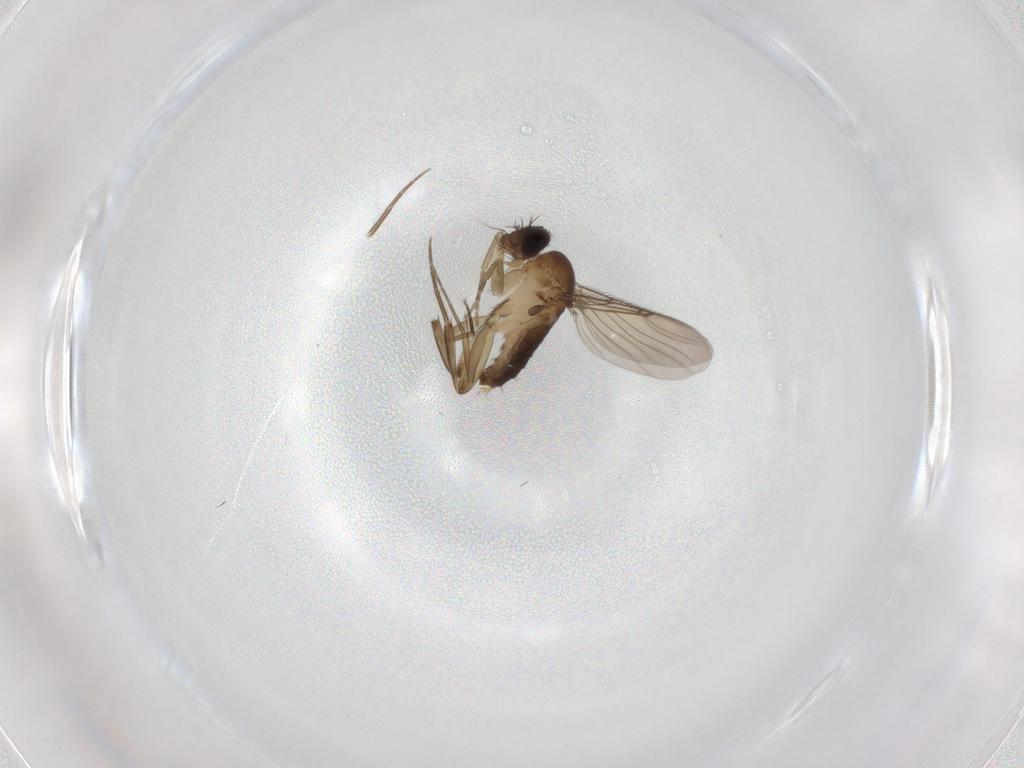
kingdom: Animalia
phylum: Arthropoda
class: Insecta
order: Diptera
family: Phoridae
